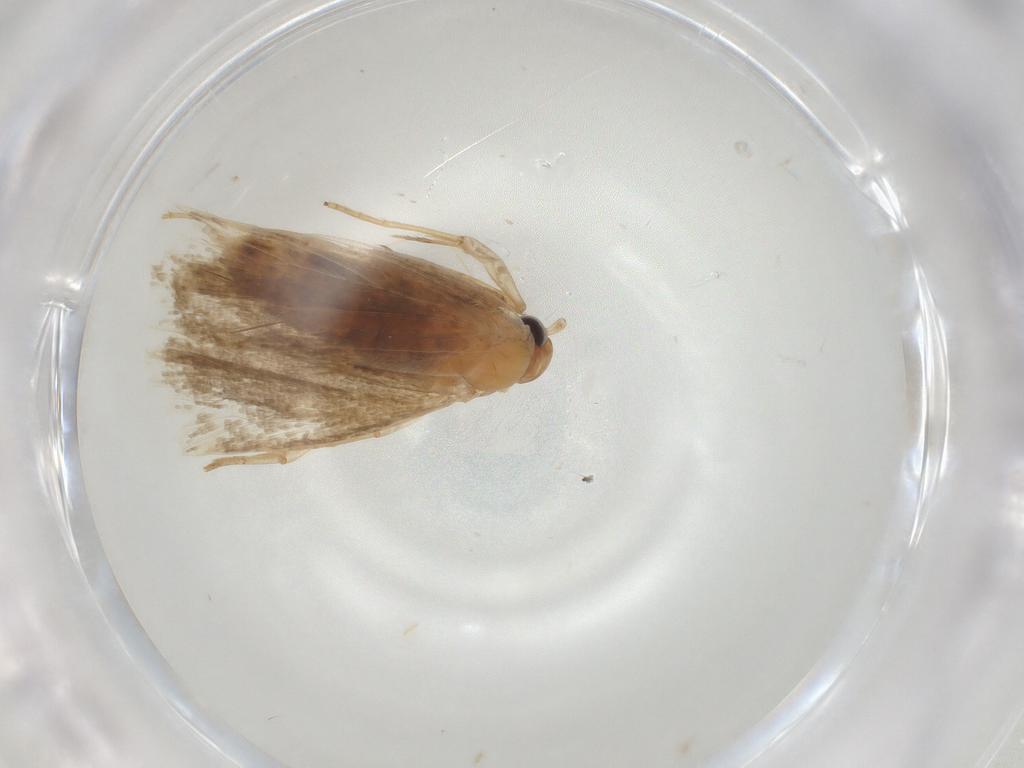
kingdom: Animalia
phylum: Arthropoda
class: Insecta
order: Lepidoptera
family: Lecithoceridae
